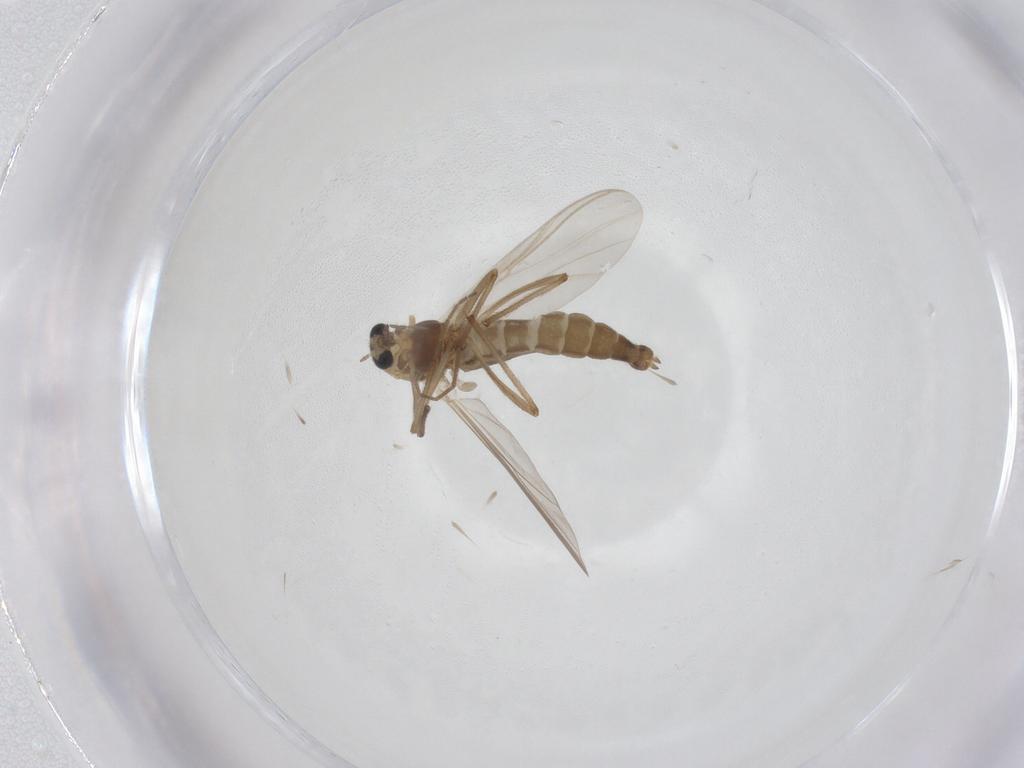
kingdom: Animalia
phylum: Arthropoda
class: Insecta
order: Diptera
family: Chironomidae
